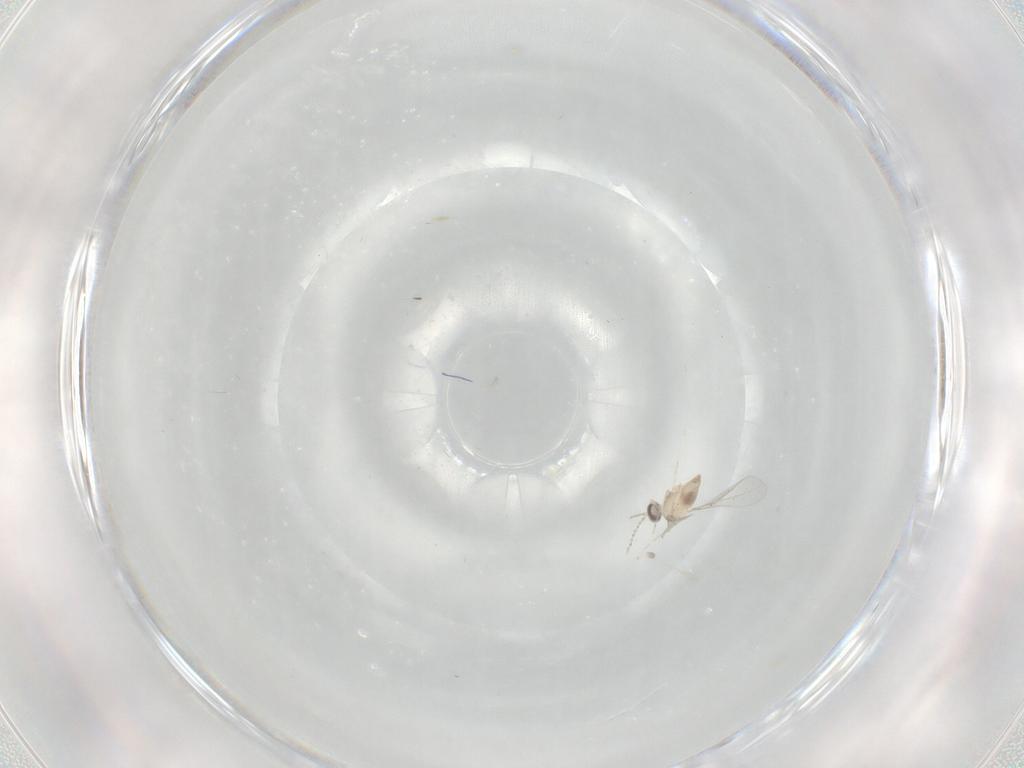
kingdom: Animalia
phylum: Arthropoda
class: Insecta
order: Diptera
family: Cecidomyiidae
